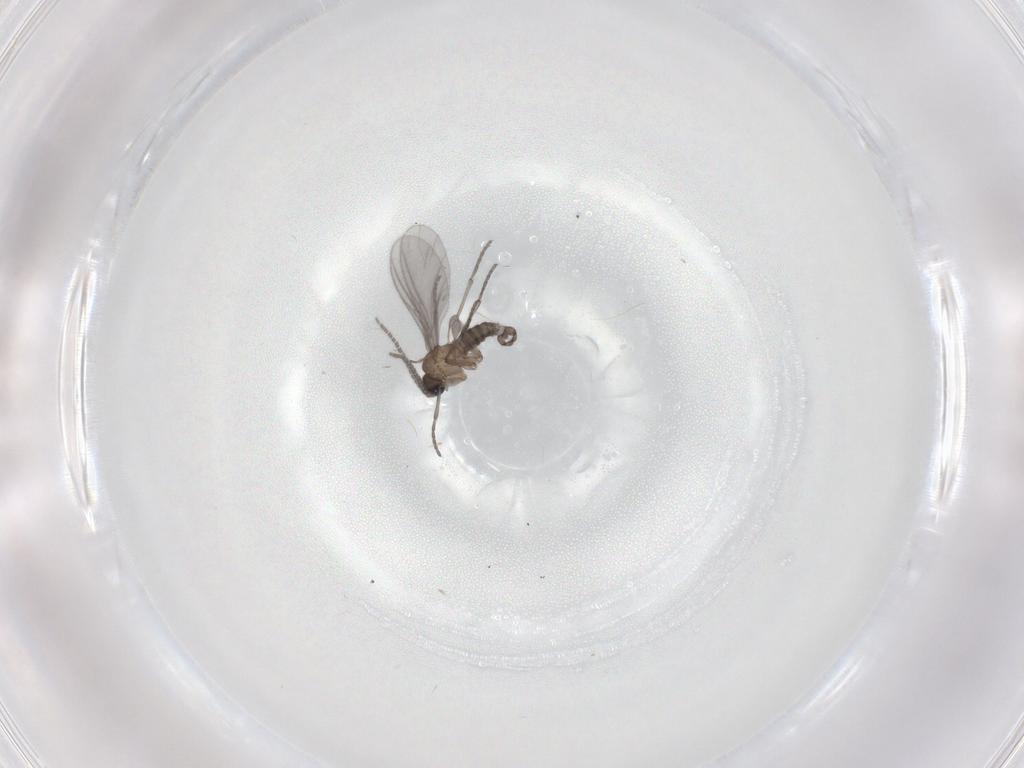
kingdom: Animalia
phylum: Arthropoda
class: Insecta
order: Diptera
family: Chironomidae
